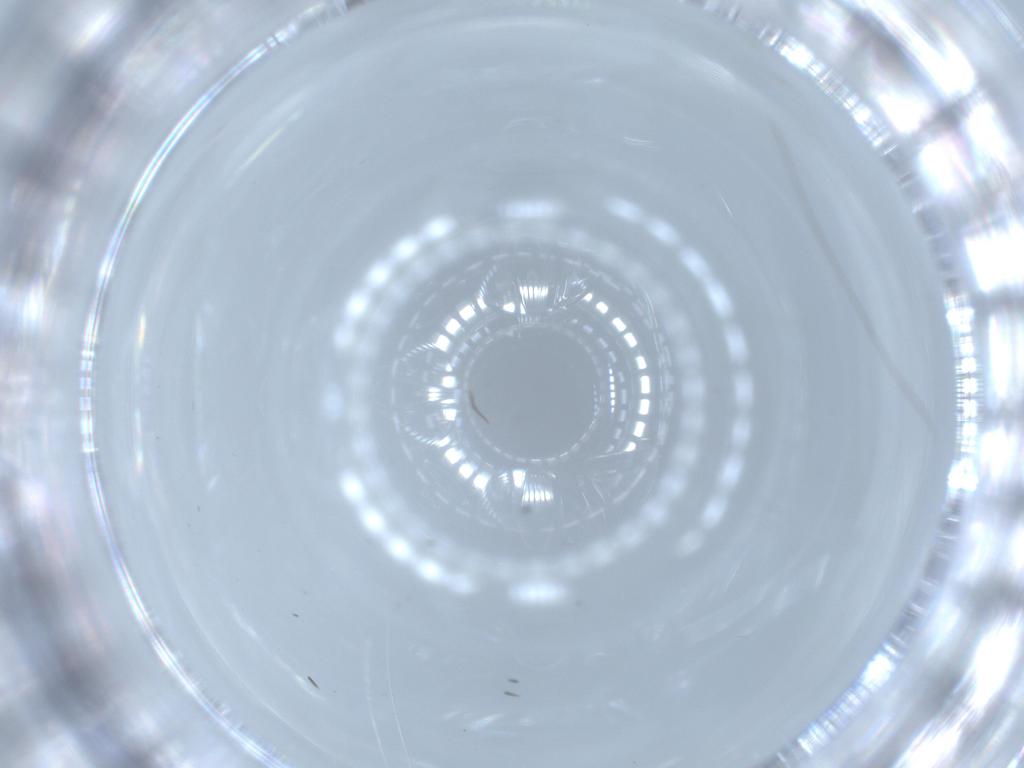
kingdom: Animalia
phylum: Arthropoda
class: Insecta
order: Diptera
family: Chironomidae
